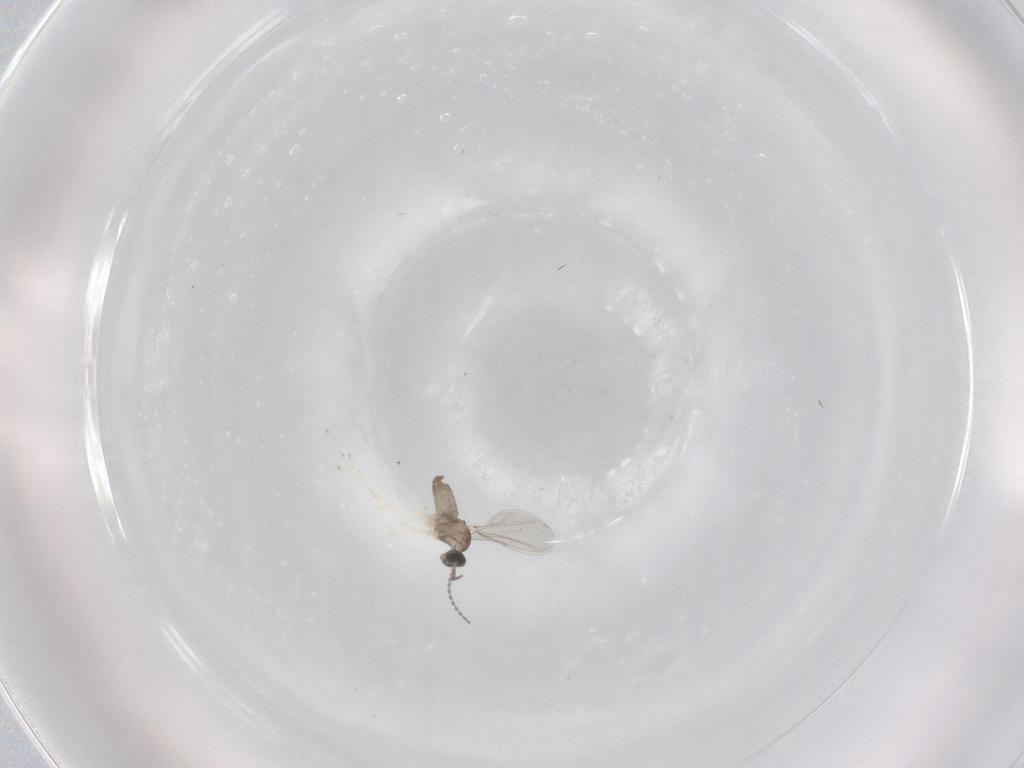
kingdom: Animalia
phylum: Arthropoda
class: Insecta
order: Diptera
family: Cecidomyiidae
